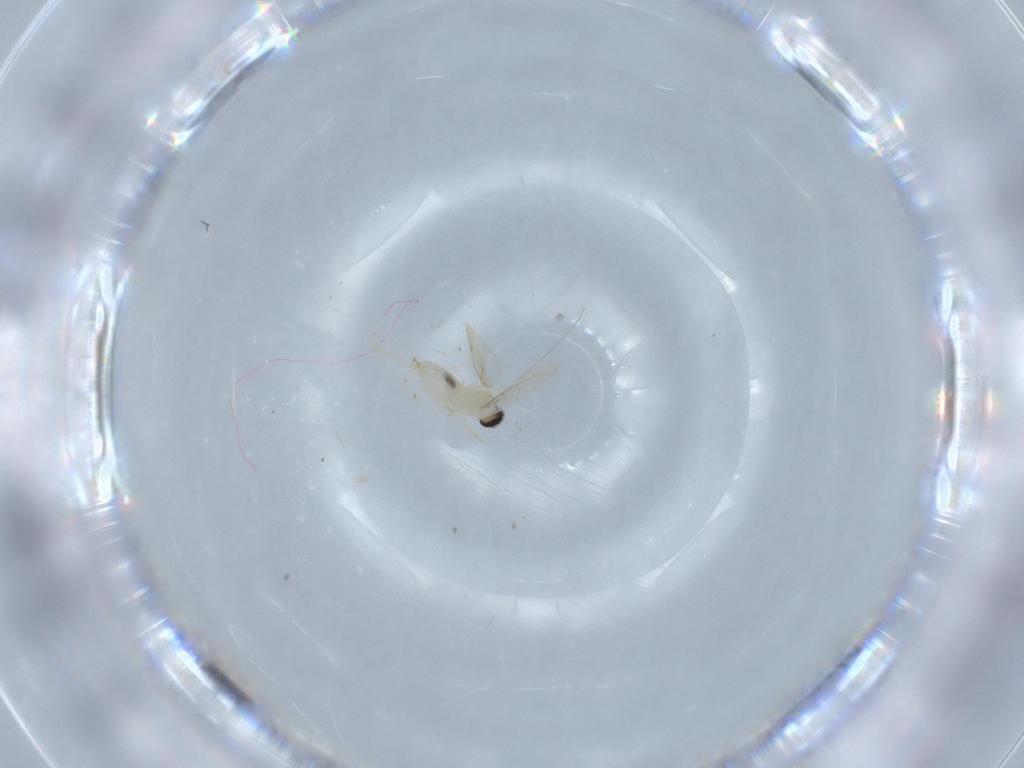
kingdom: Animalia
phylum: Arthropoda
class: Insecta
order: Diptera
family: Cecidomyiidae
